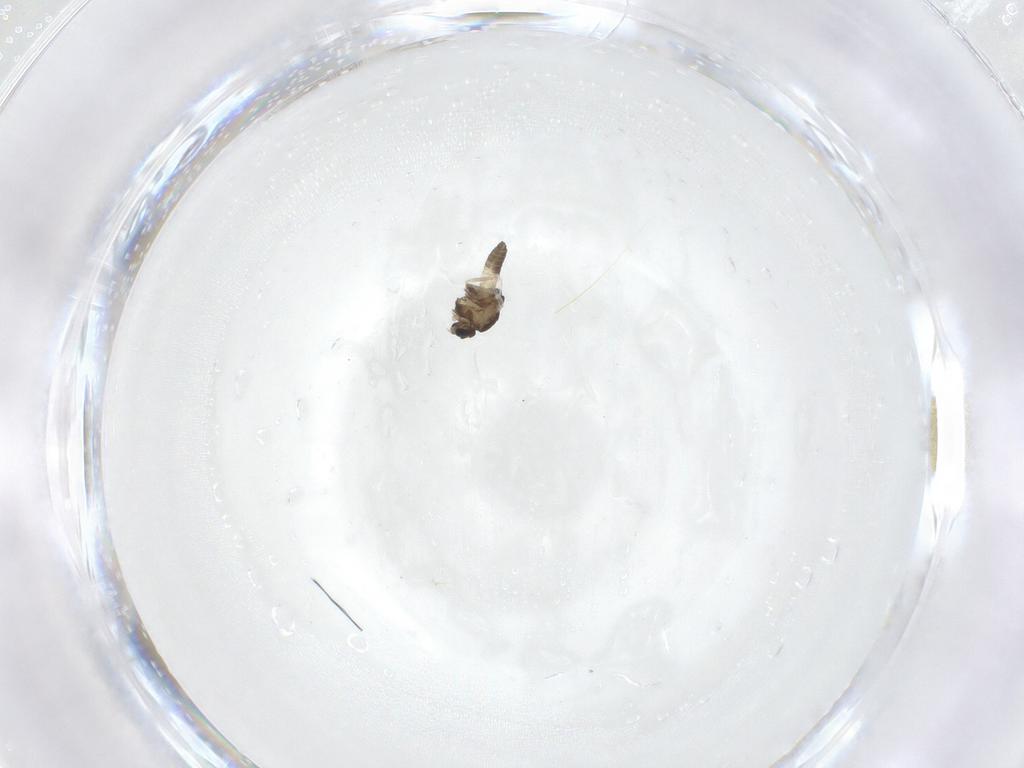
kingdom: Animalia
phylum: Arthropoda
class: Insecta
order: Diptera
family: Chironomidae
